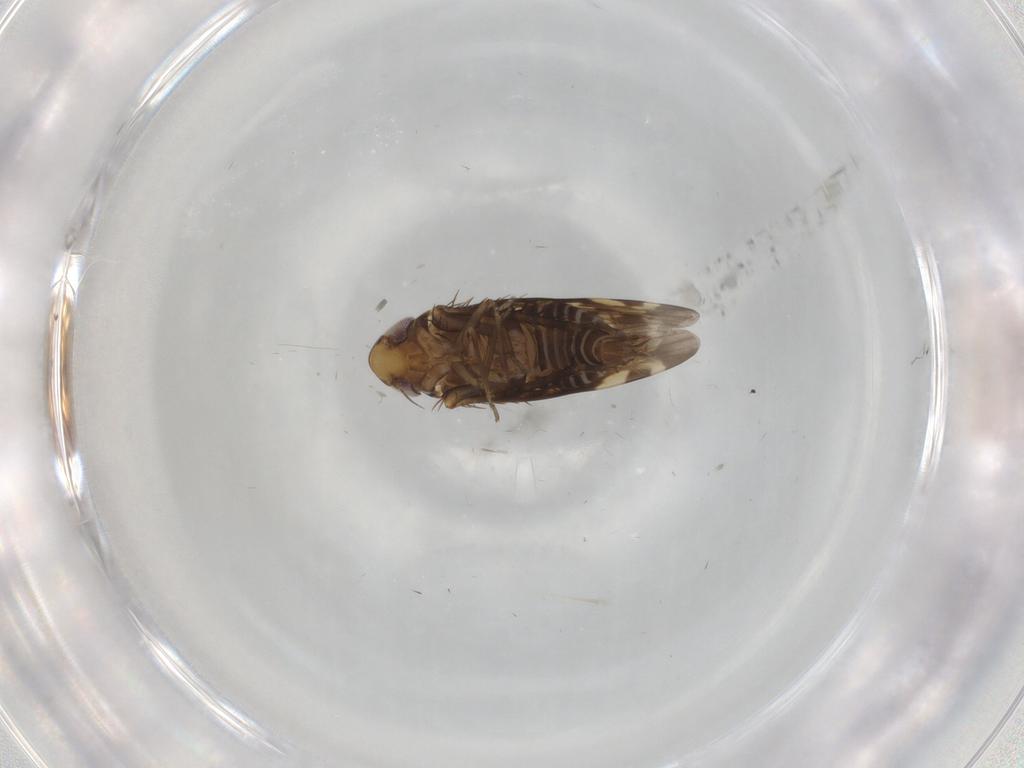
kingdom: Animalia
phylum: Arthropoda
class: Insecta
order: Hemiptera
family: Cicadellidae
